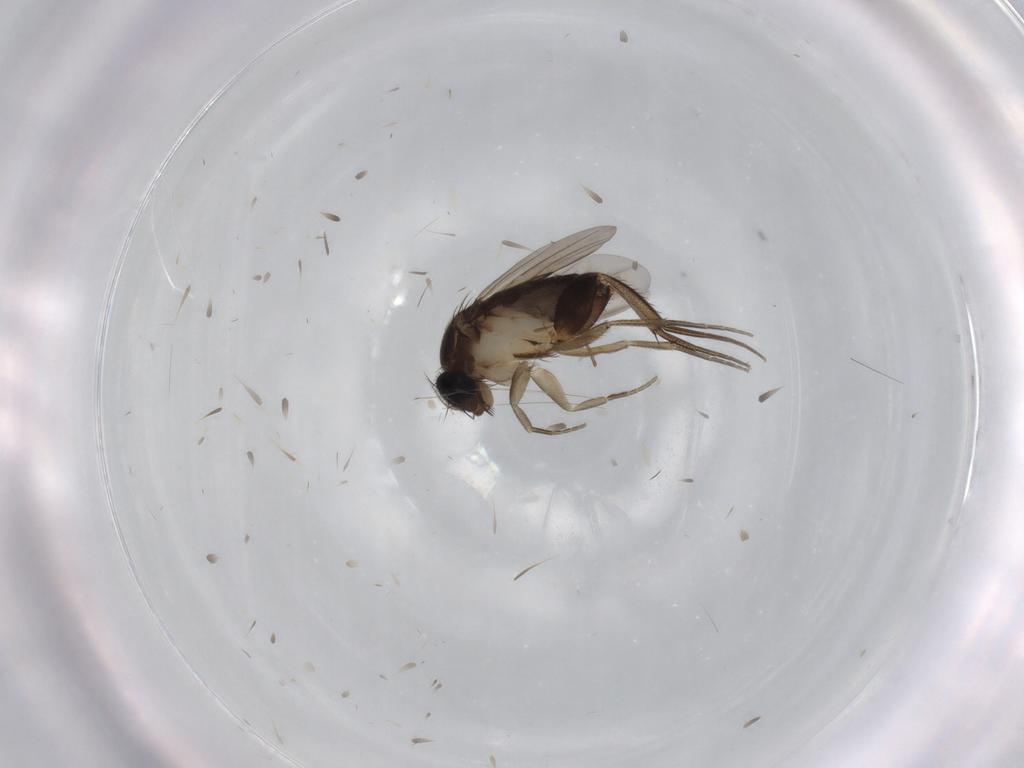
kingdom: Animalia
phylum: Arthropoda
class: Insecta
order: Diptera
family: Phoridae
